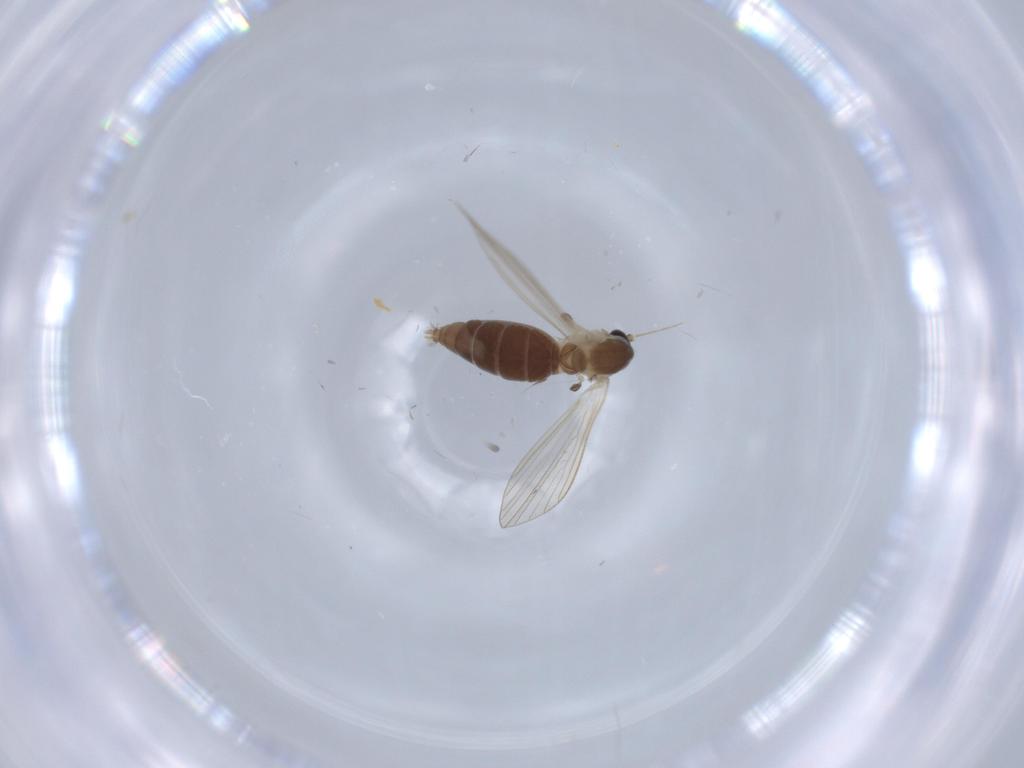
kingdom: Animalia
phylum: Arthropoda
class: Insecta
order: Diptera
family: Psychodidae
